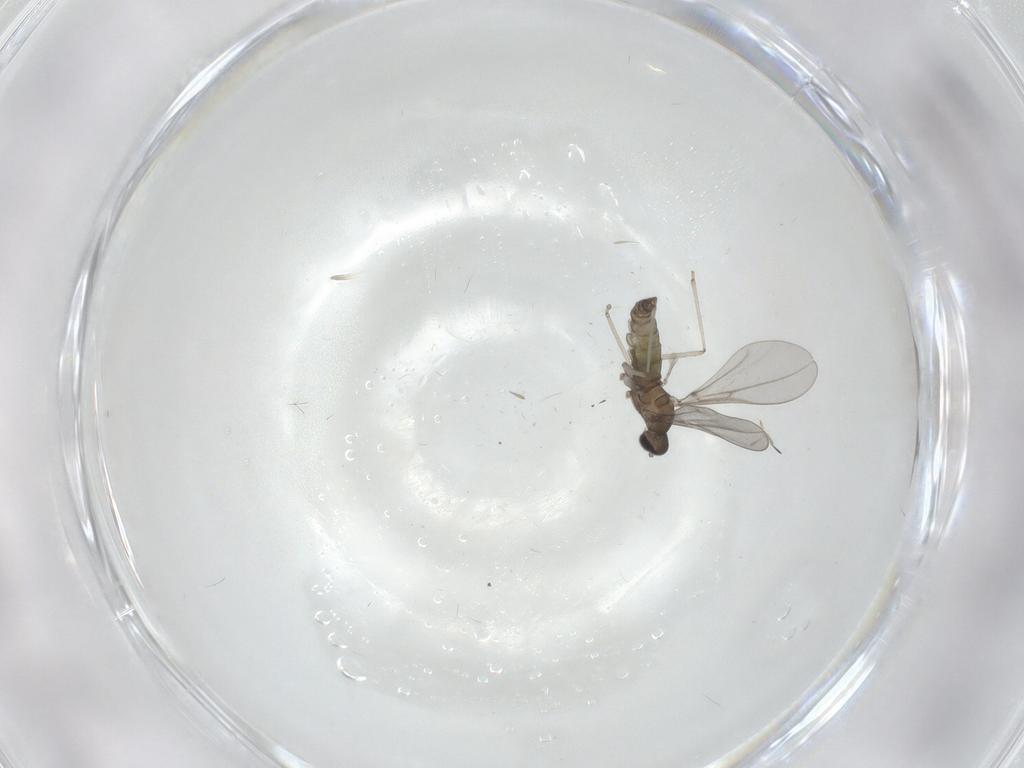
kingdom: Animalia
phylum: Arthropoda
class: Insecta
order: Diptera
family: Cecidomyiidae
